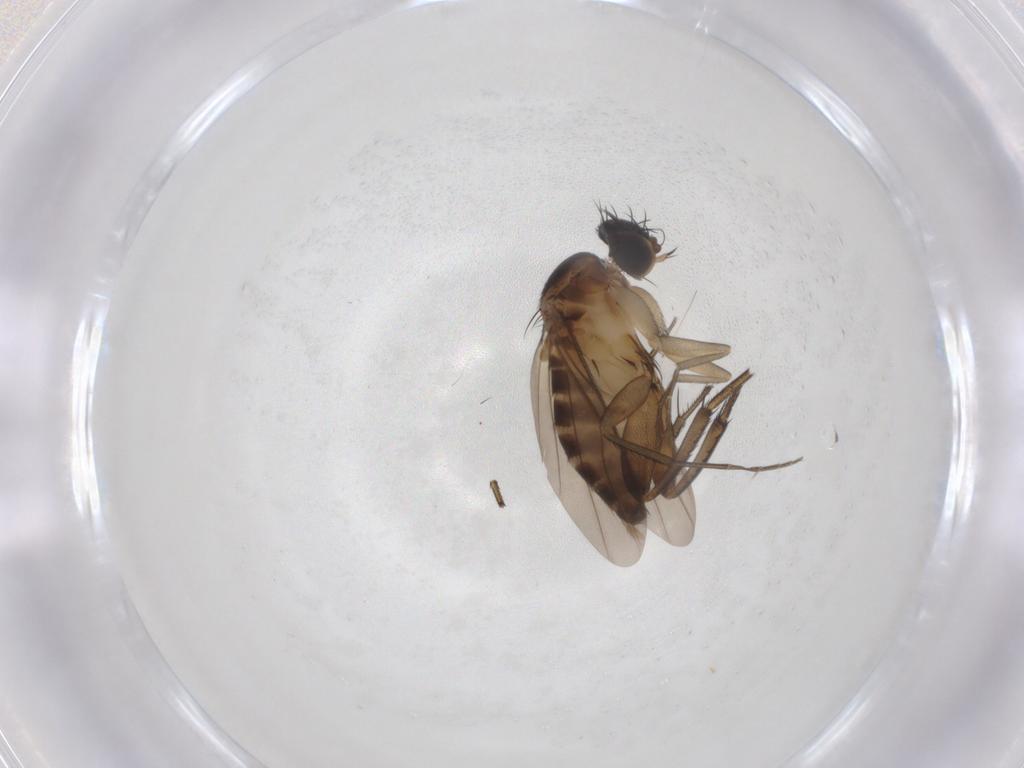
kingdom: Animalia
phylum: Arthropoda
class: Insecta
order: Diptera
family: Phoridae
